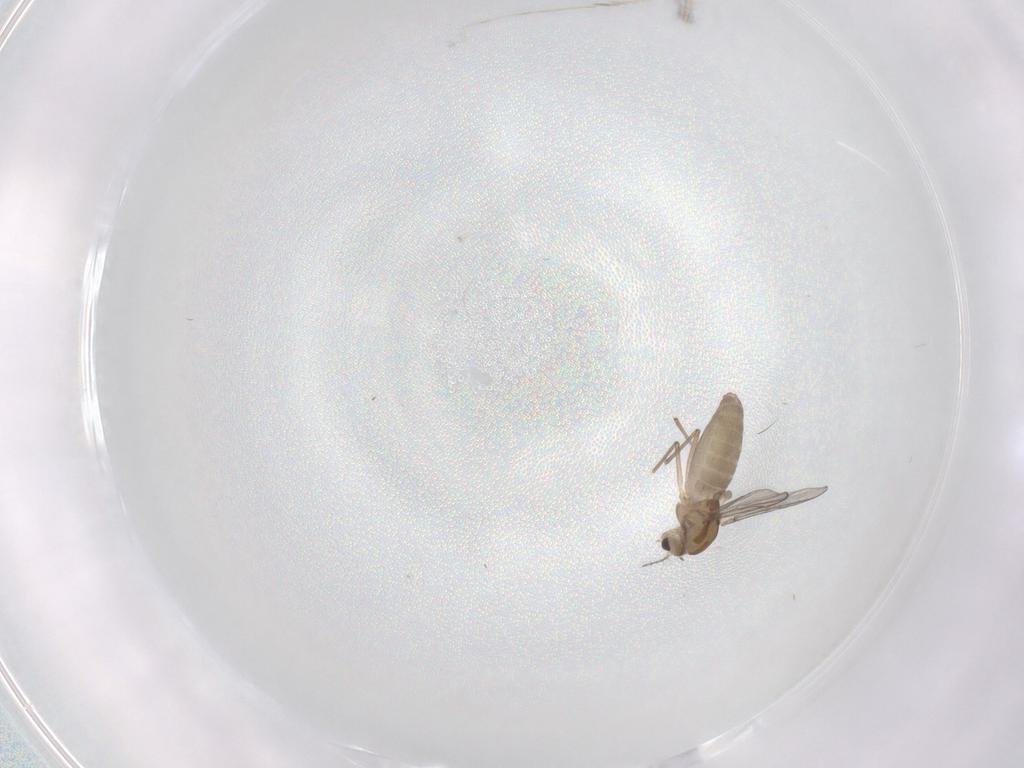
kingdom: Animalia
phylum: Arthropoda
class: Insecta
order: Diptera
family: Chironomidae
